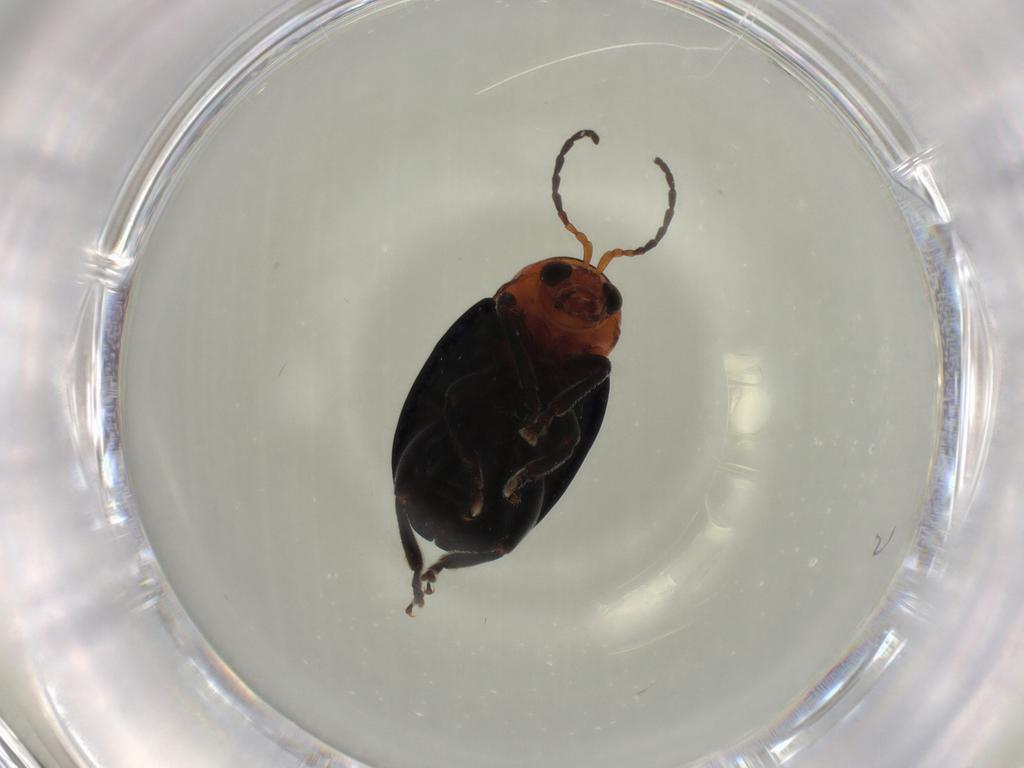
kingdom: Animalia
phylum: Arthropoda
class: Insecta
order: Coleoptera
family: Chrysomelidae
